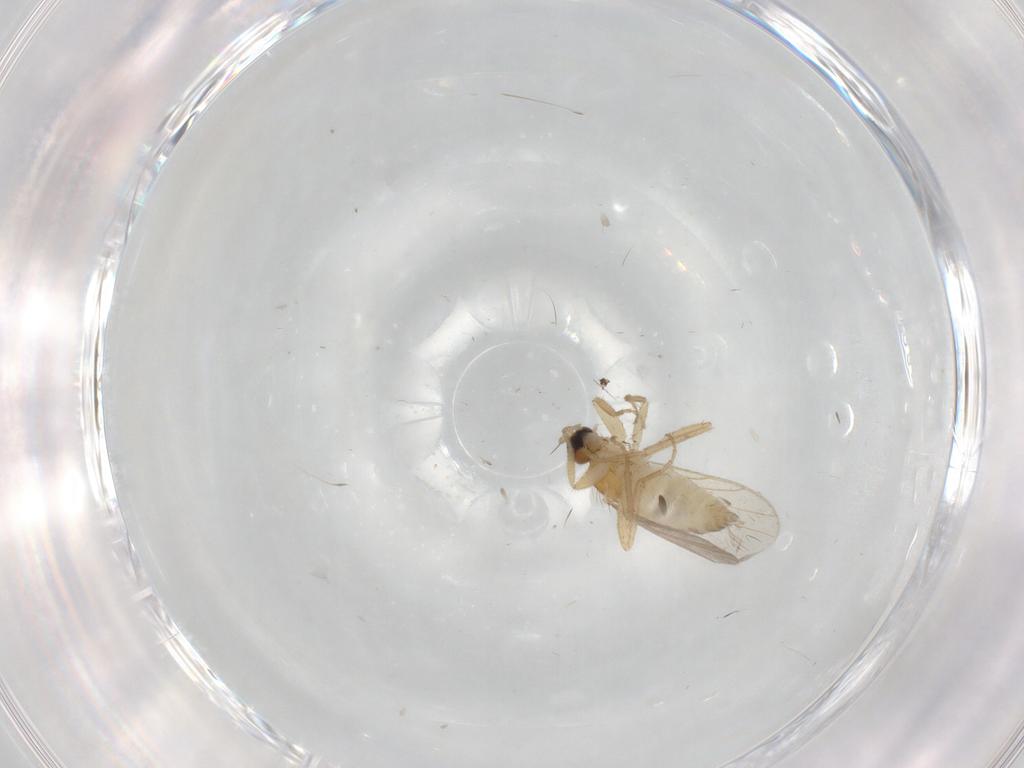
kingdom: Animalia
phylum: Arthropoda
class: Insecta
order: Diptera
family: Hybotidae
